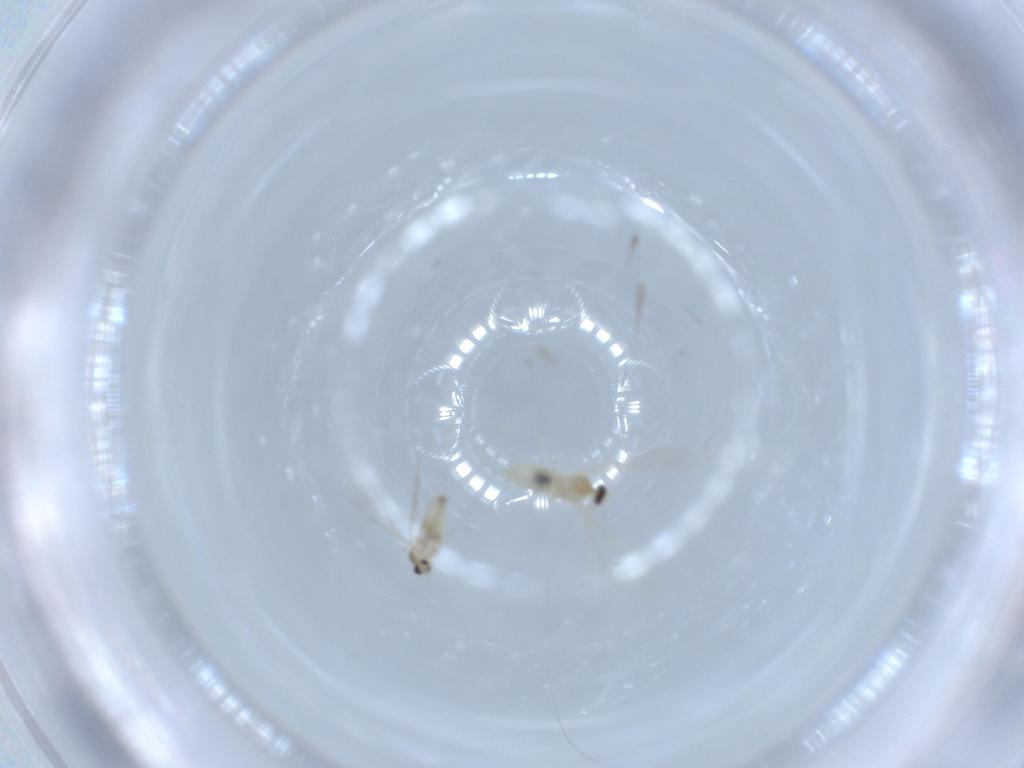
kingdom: Animalia
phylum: Arthropoda
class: Insecta
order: Diptera
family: Cecidomyiidae
